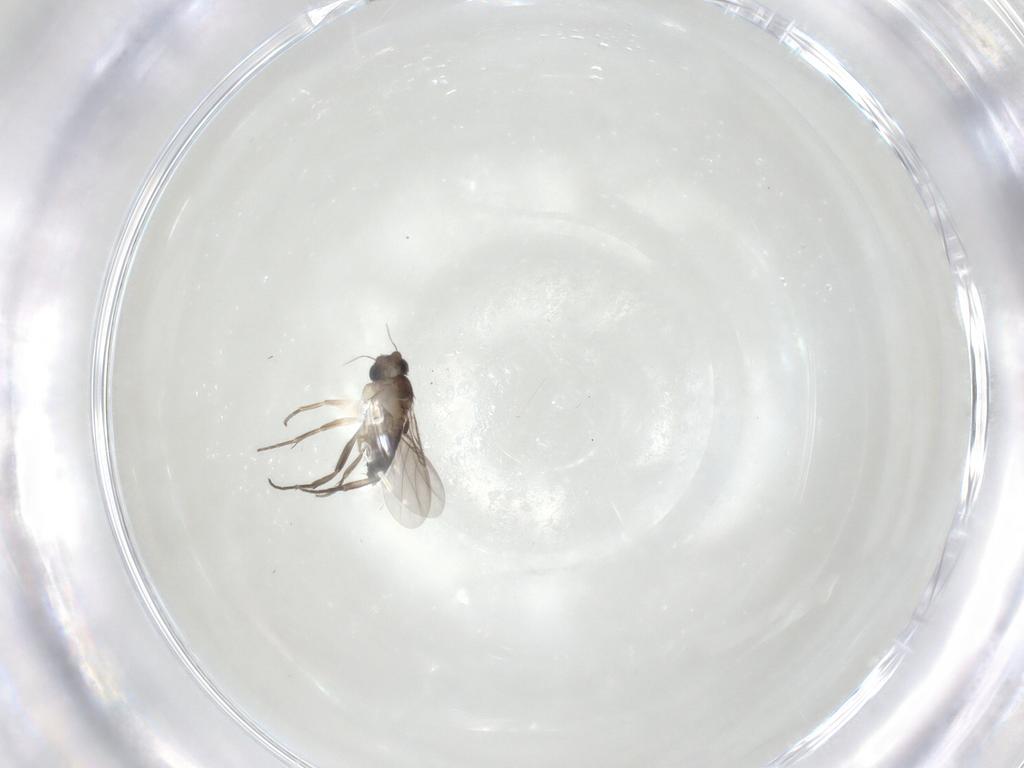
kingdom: Animalia
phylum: Arthropoda
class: Insecta
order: Diptera
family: Phoridae
